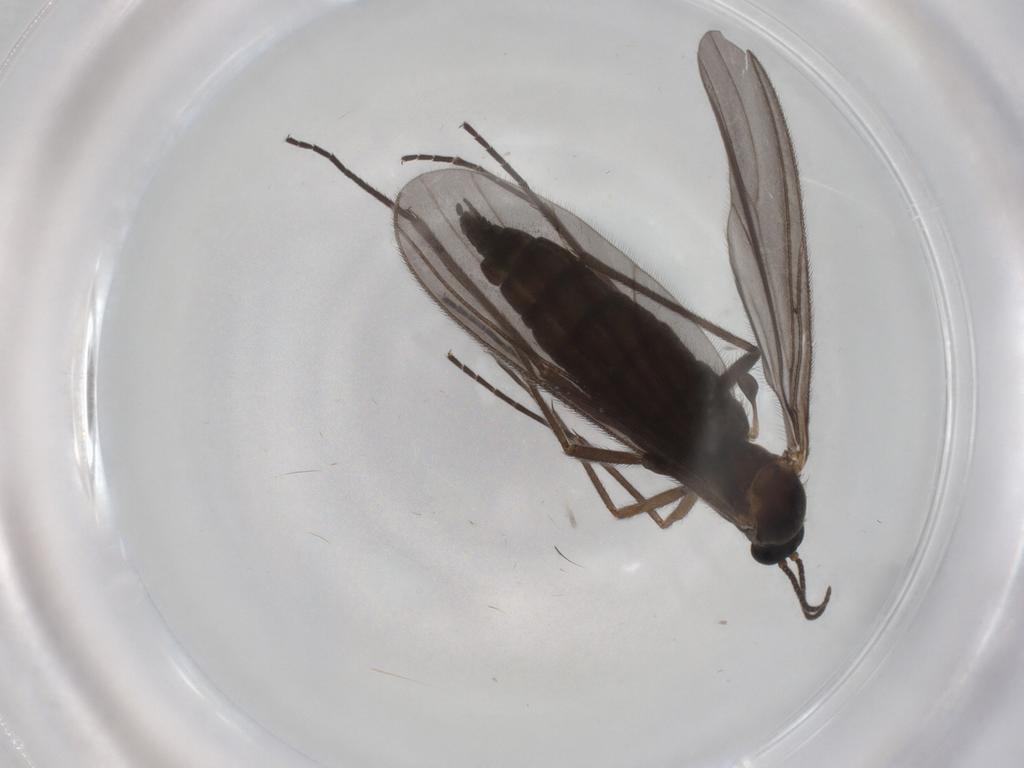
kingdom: Animalia
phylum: Arthropoda
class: Insecta
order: Diptera
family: Sciaridae
